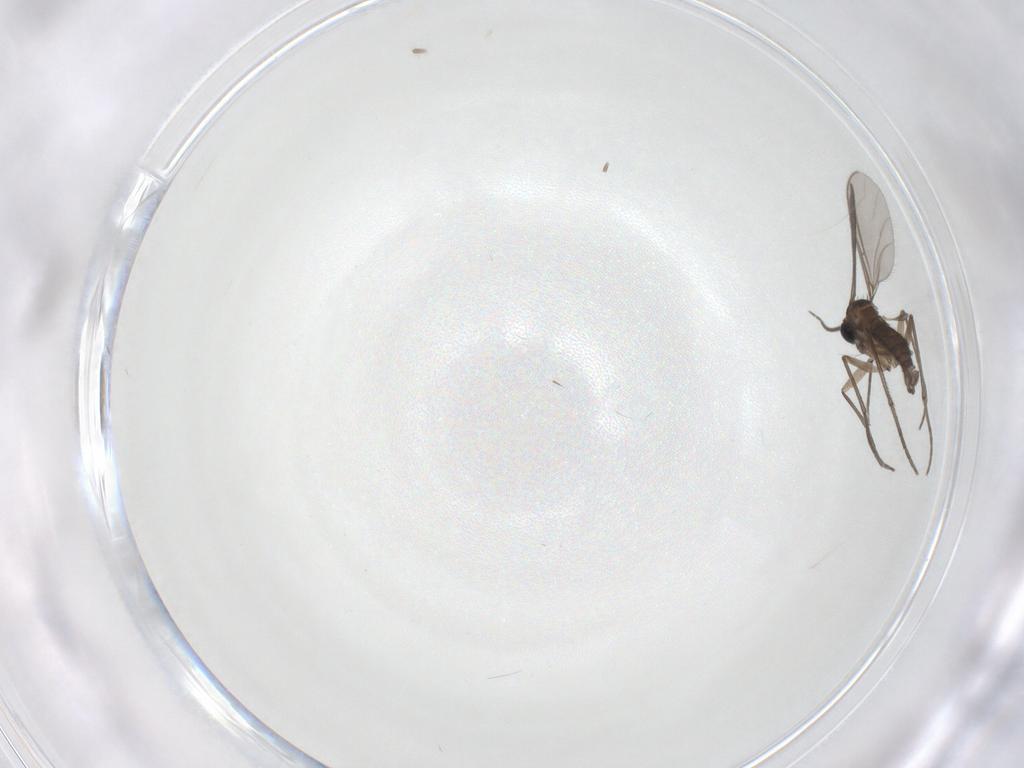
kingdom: Animalia
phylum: Arthropoda
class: Insecta
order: Diptera
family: Sciaridae
